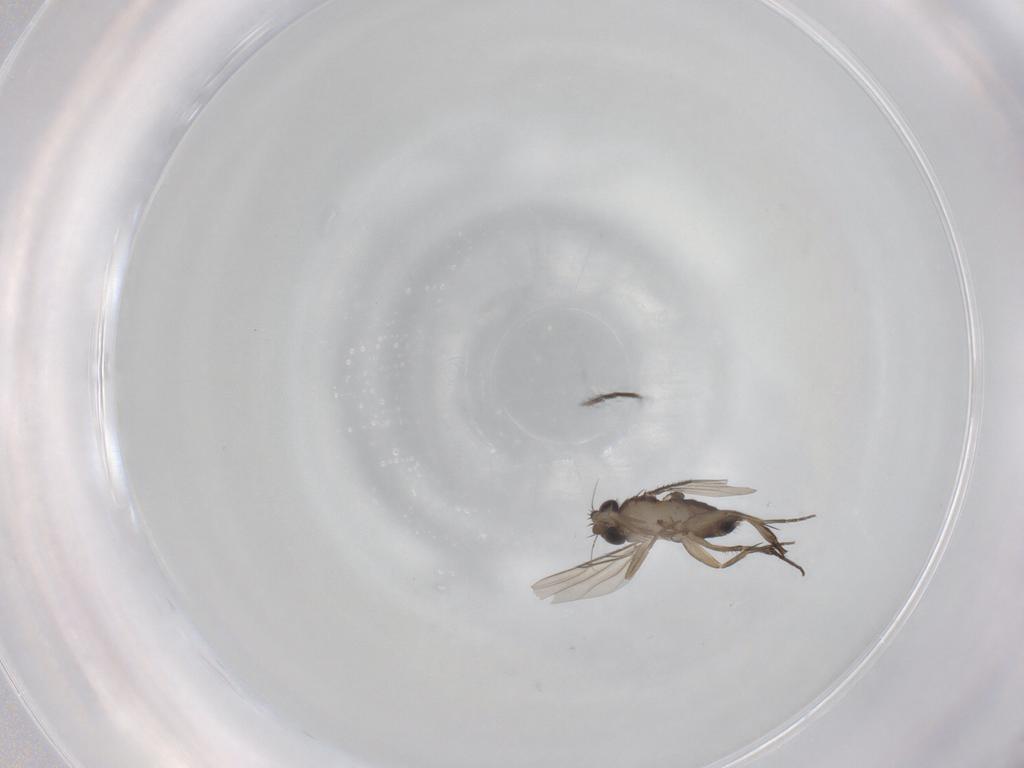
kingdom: Animalia
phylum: Arthropoda
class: Insecta
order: Diptera
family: Phoridae
